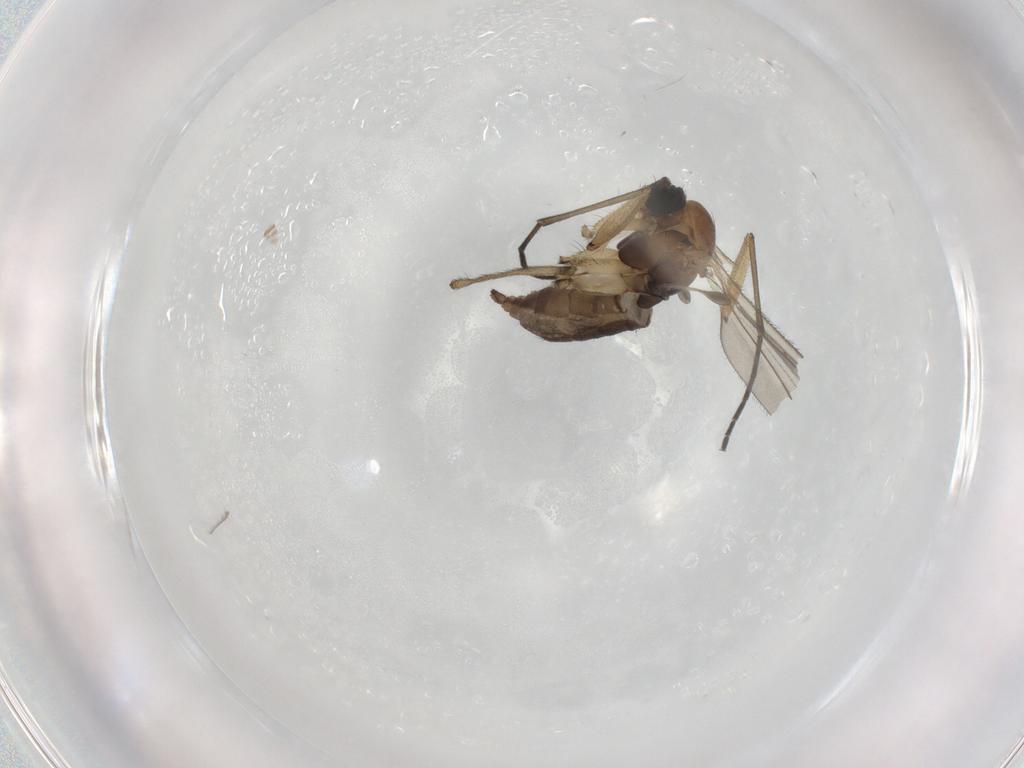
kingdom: Animalia
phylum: Arthropoda
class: Insecta
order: Diptera
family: Sciaridae
